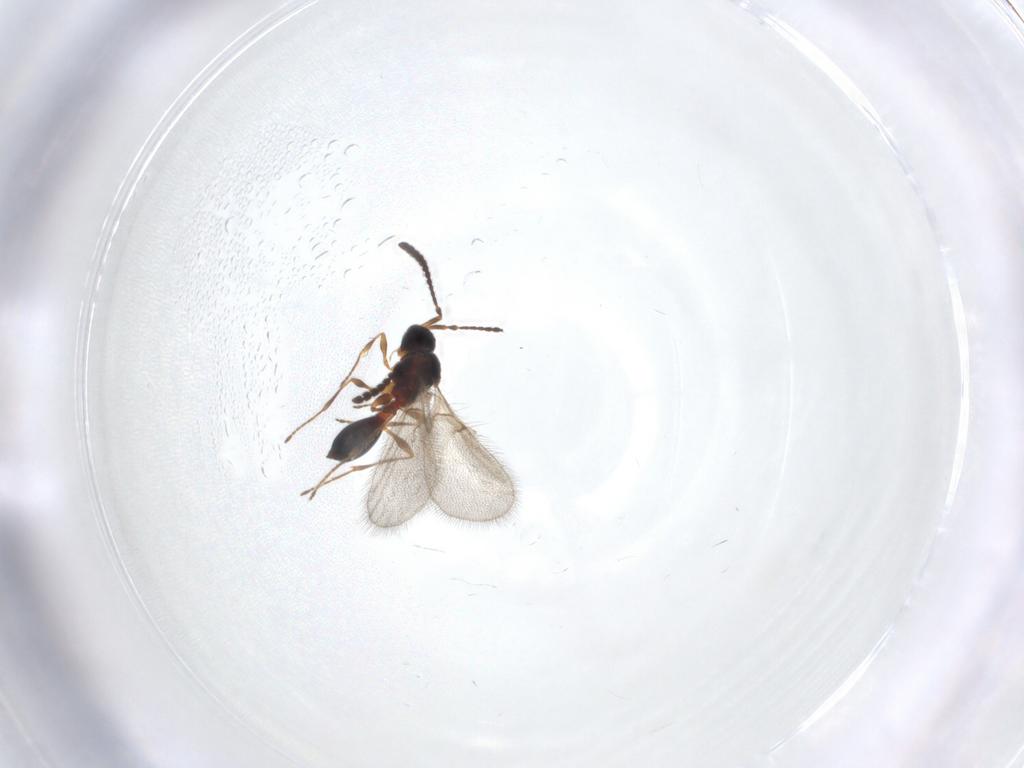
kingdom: Animalia
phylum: Arthropoda
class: Insecta
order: Hymenoptera
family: Diapriidae
